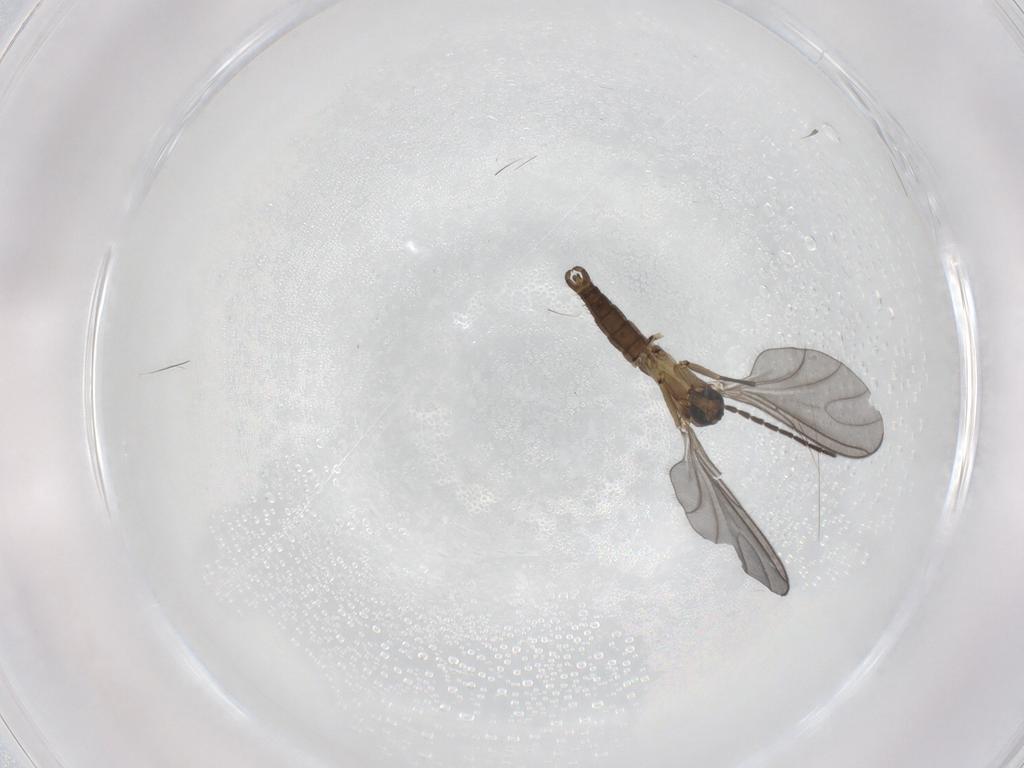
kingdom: Animalia
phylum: Arthropoda
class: Insecta
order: Diptera
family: Sciaridae
